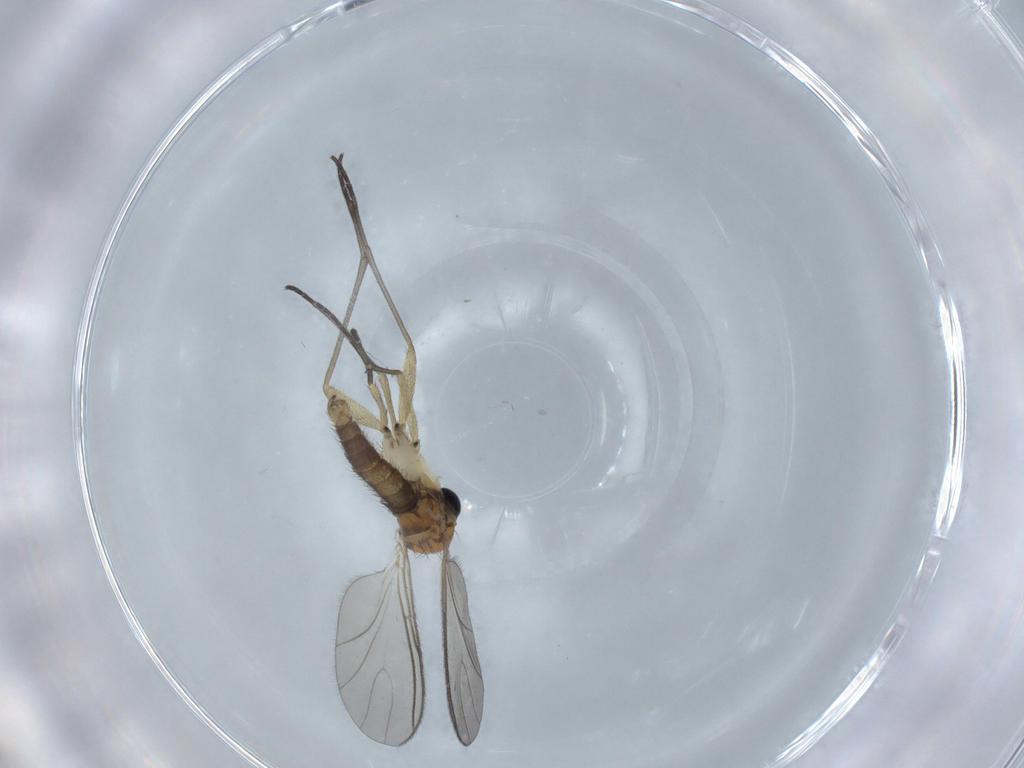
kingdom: Animalia
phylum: Arthropoda
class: Insecta
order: Diptera
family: Sciaridae
